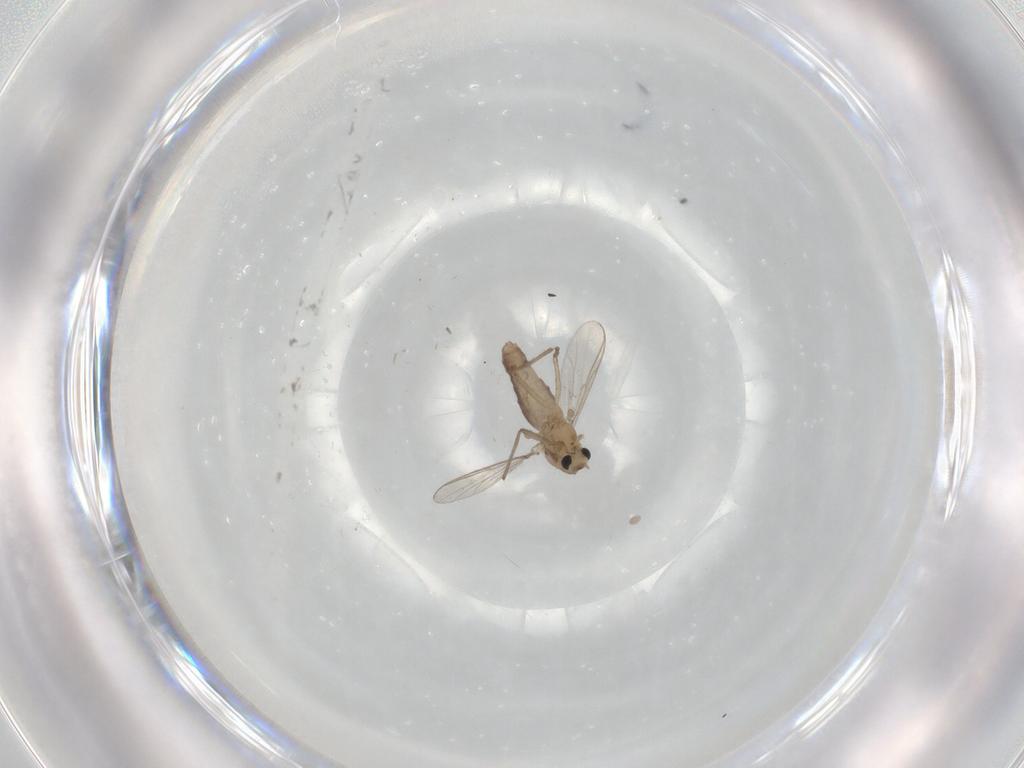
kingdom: Animalia
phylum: Arthropoda
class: Insecta
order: Diptera
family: Chironomidae
